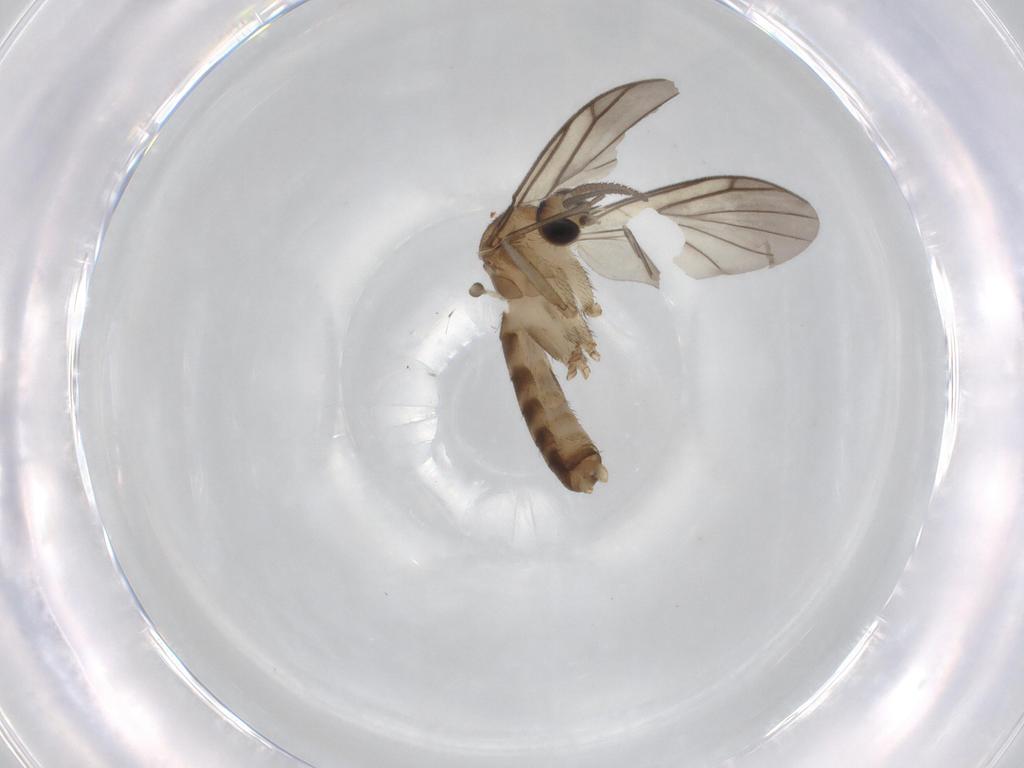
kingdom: Animalia
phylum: Arthropoda
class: Insecta
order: Diptera
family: Mycetophilidae
